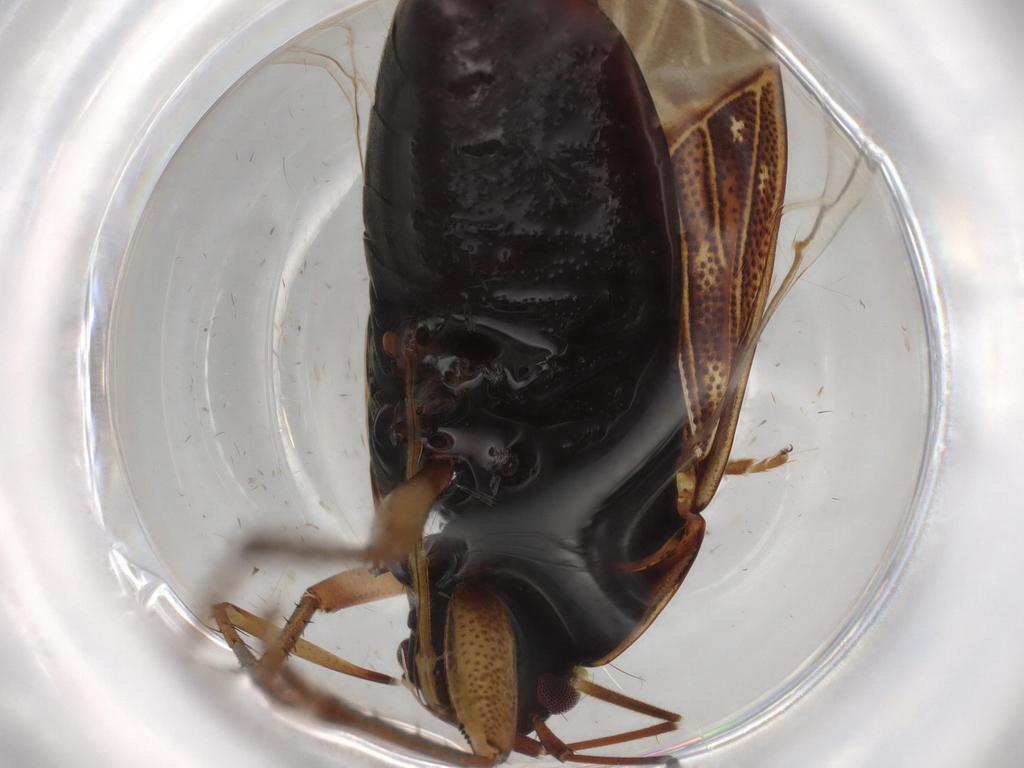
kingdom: Animalia
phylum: Arthropoda
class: Insecta
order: Hemiptera
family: Rhyparochromidae
